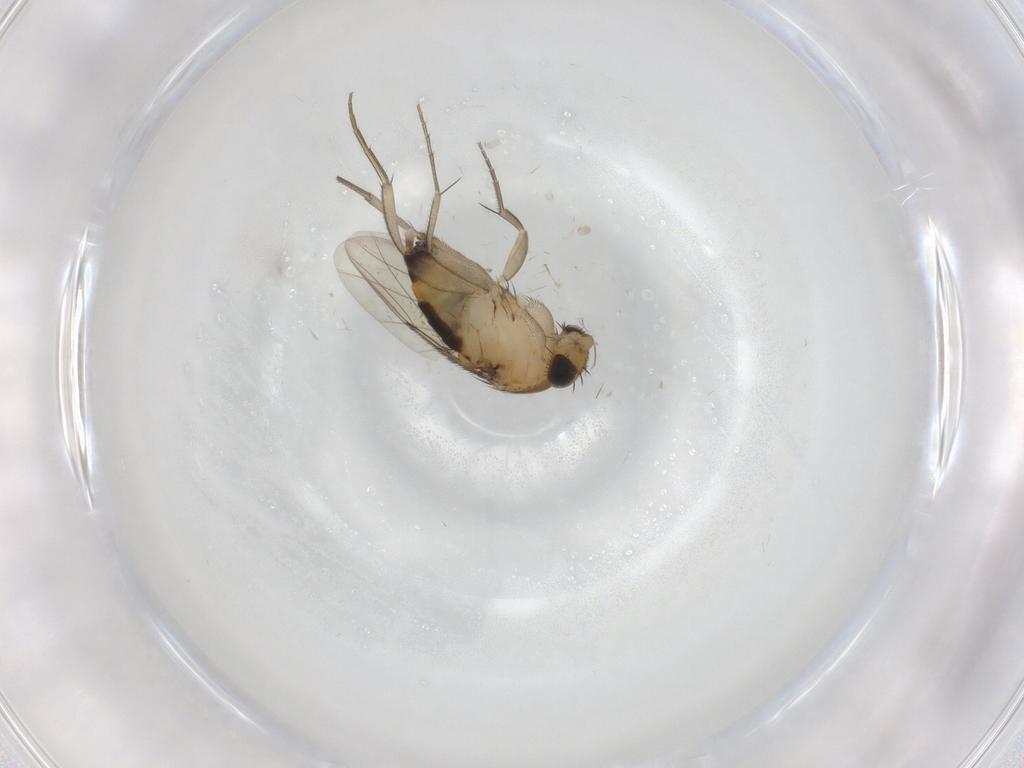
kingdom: Animalia
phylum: Arthropoda
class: Insecta
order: Diptera
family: Phoridae
